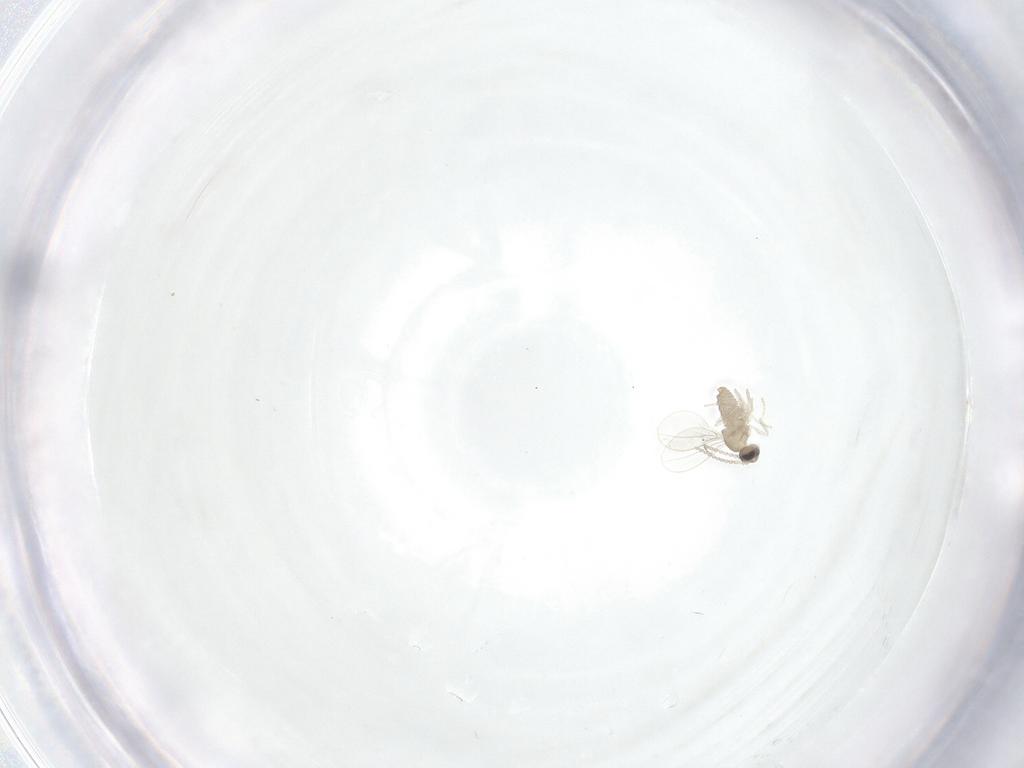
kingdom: Animalia
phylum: Arthropoda
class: Insecta
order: Diptera
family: Cecidomyiidae
